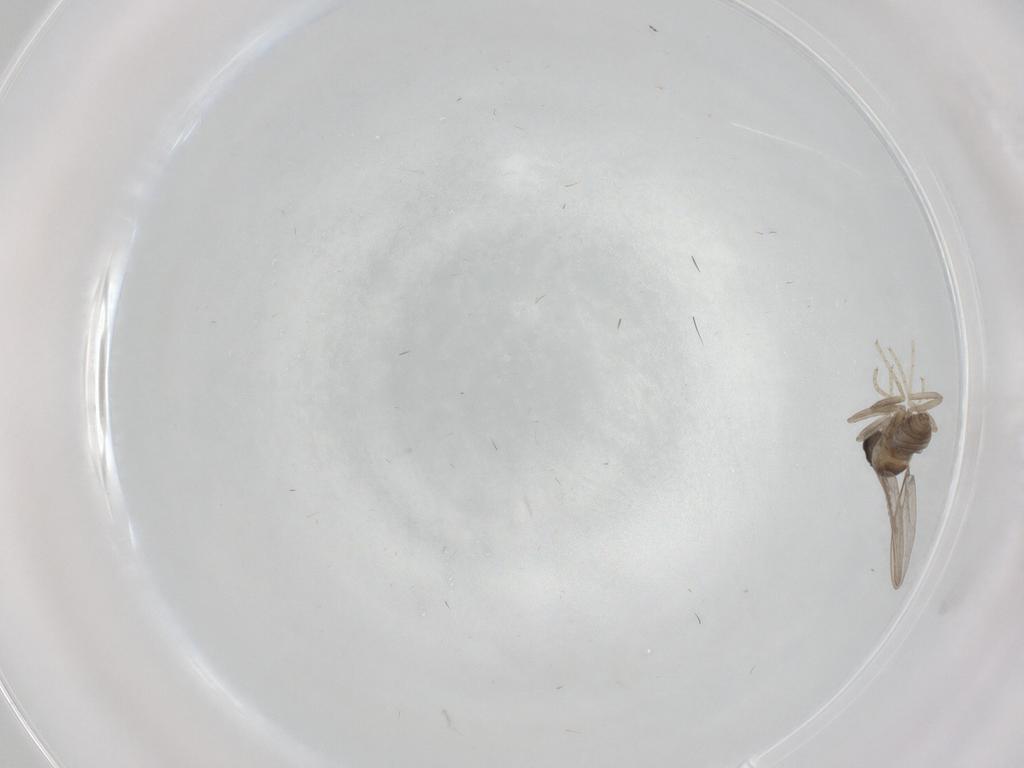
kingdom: Animalia
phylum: Arthropoda
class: Insecta
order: Diptera
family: Cecidomyiidae
